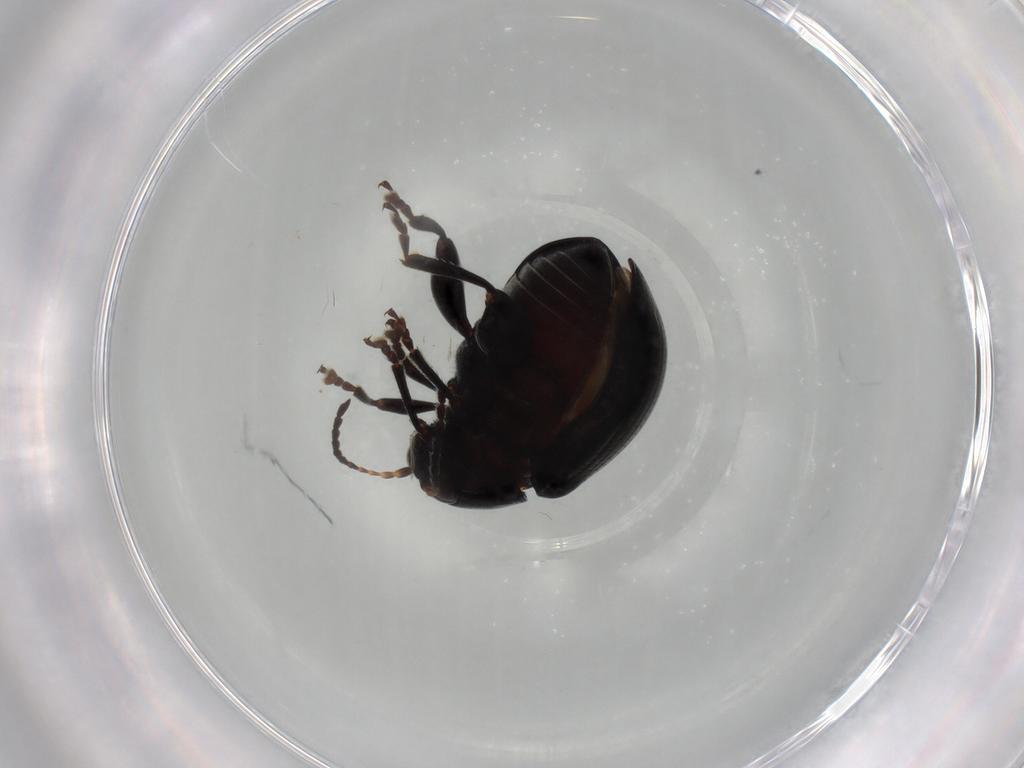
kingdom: Animalia
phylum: Arthropoda
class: Insecta
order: Coleoptera
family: Chrysomelidae
